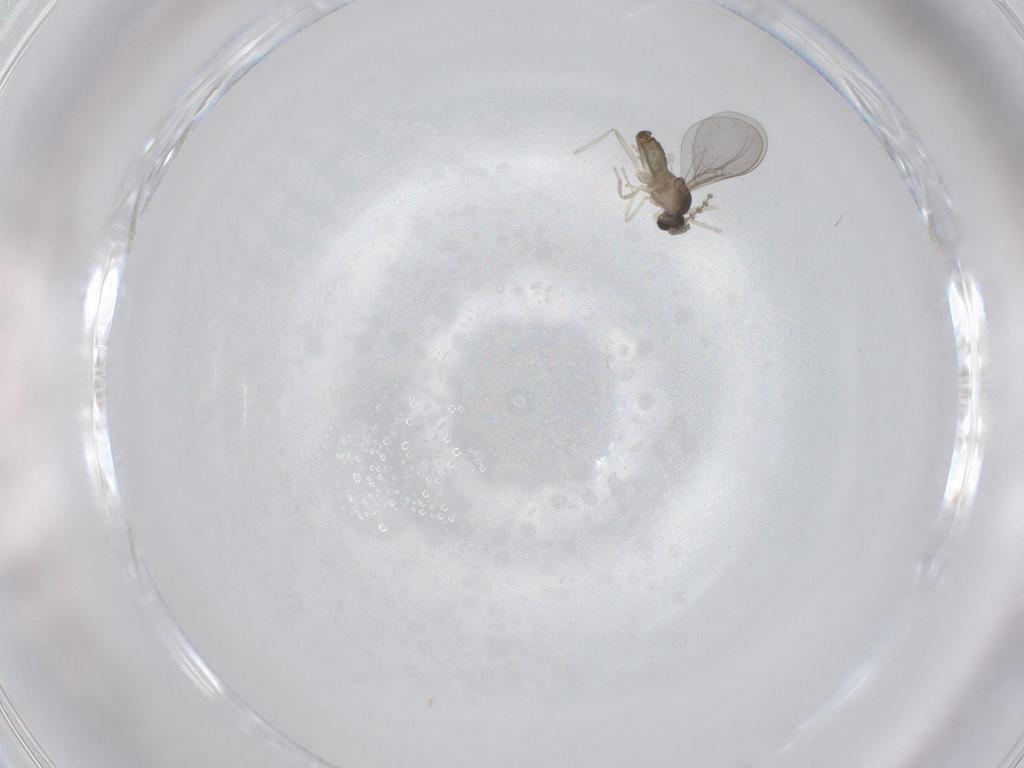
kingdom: Animalia
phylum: Arthropoda
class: Insecta
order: Diptera
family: Cecidomyiidae
